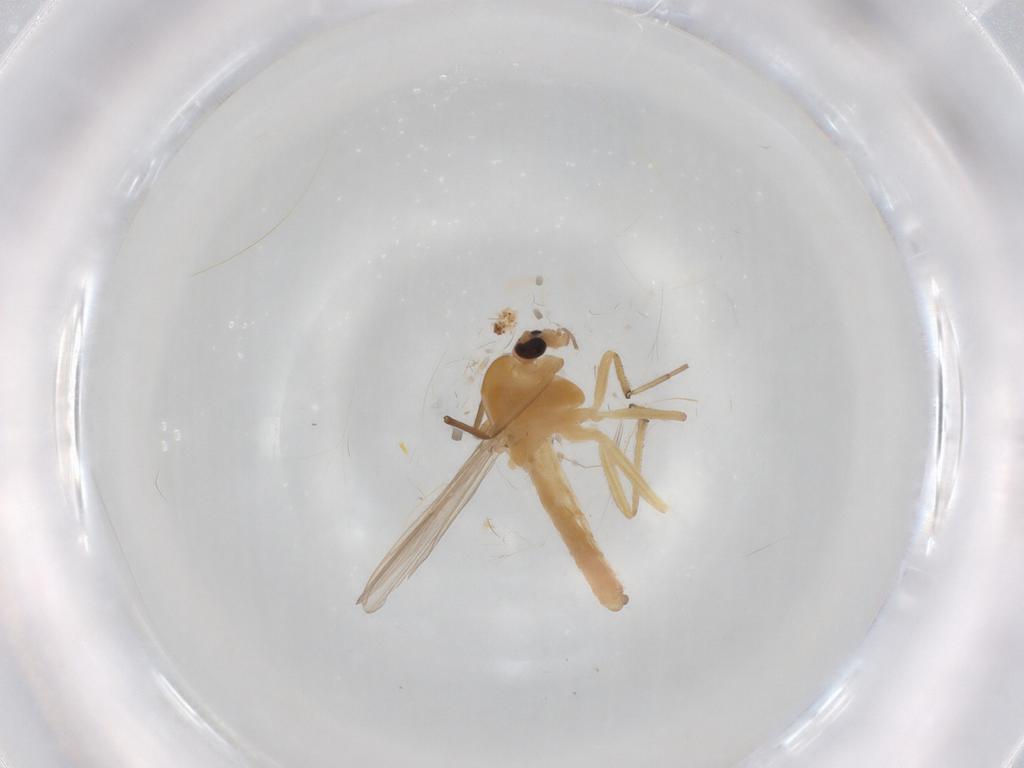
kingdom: Animalia
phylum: Arthropoda
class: Insecta
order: Diptera
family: Chironomidae
